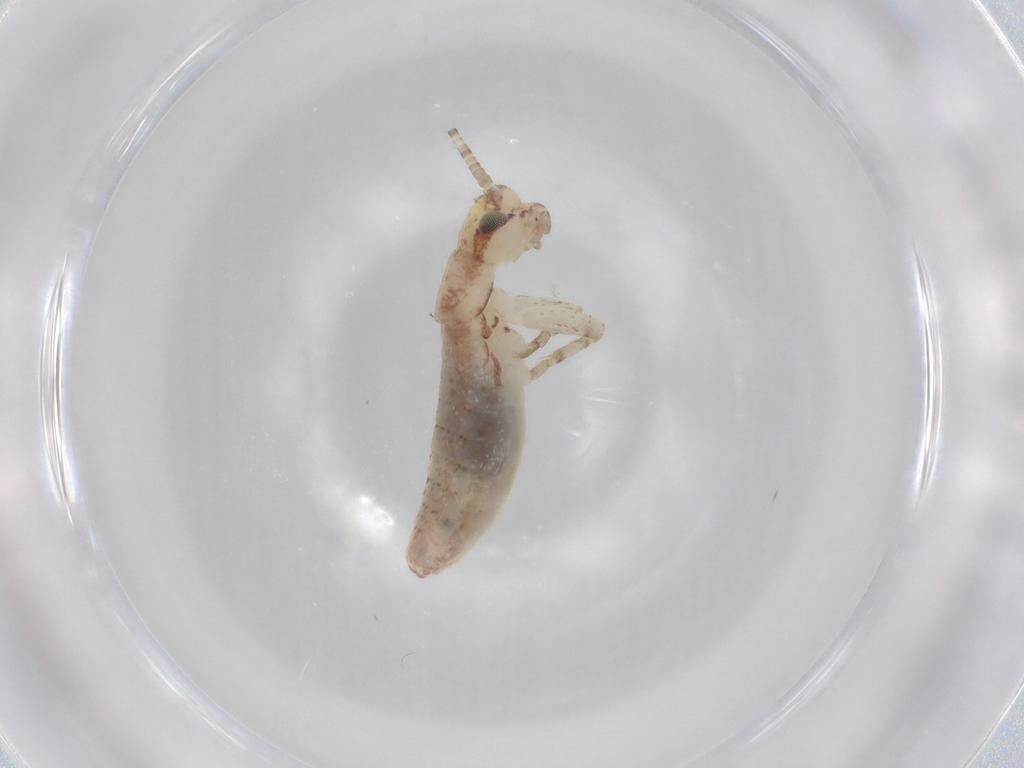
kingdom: Animalia
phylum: Arthropoda
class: Insecta
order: Orthoptera
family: Mogoplistidae
